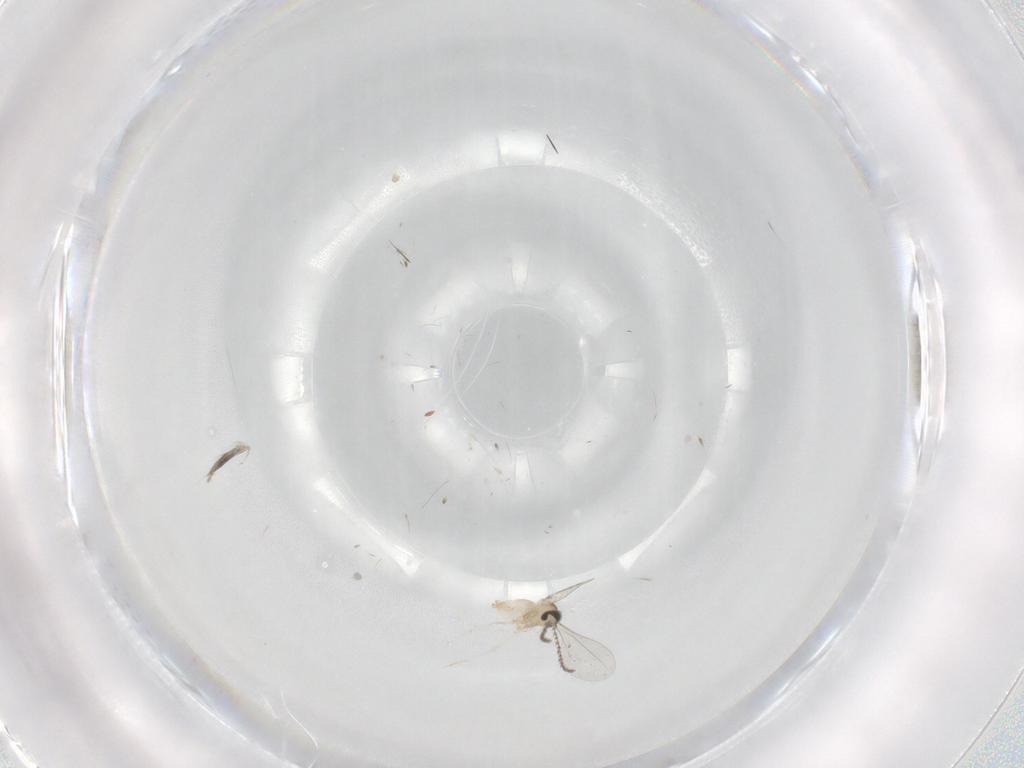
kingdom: Animalia
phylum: Arthropoda
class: Insecta
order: Diptera
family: Cecidomyiidae
